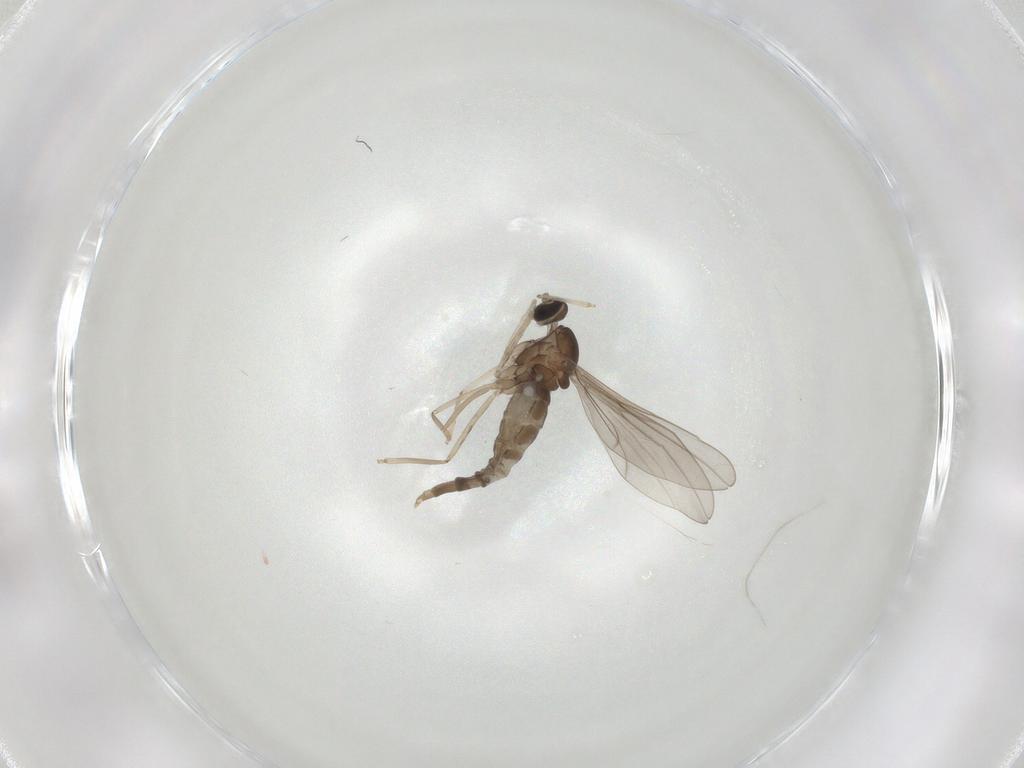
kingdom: Animalia
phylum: Arthropoda
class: Insecta
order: Diptera
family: Cecidomyiidae
